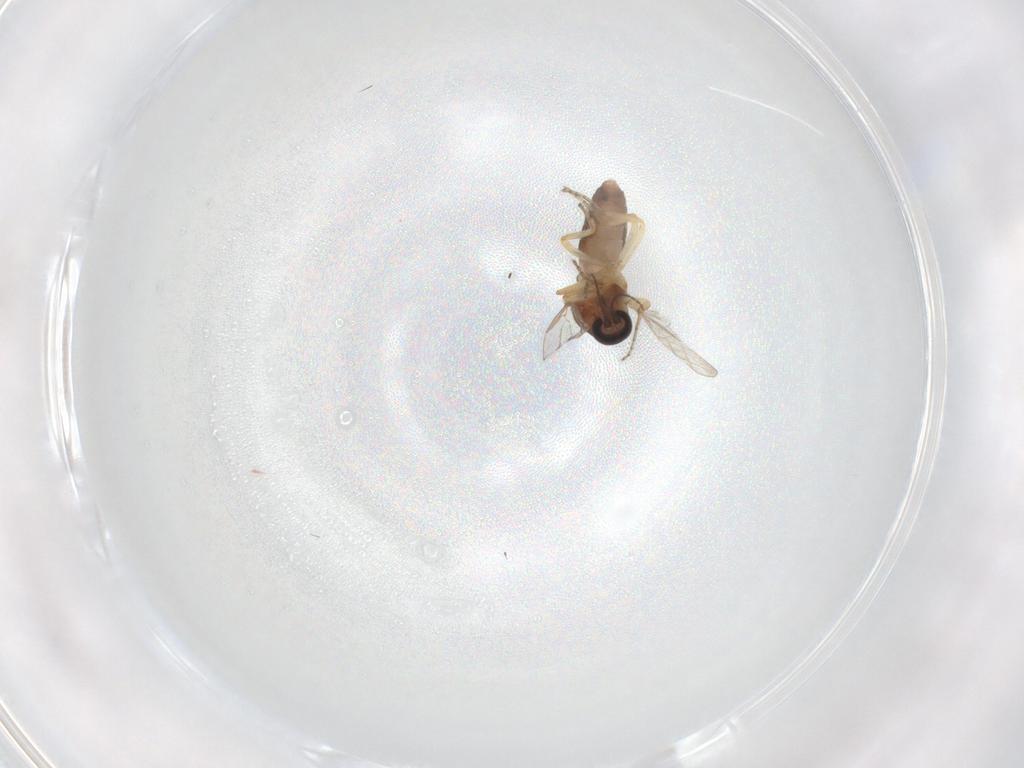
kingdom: Animalia
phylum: Arthropoda
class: Insecta
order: Diptera
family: Ceratopogonidae
